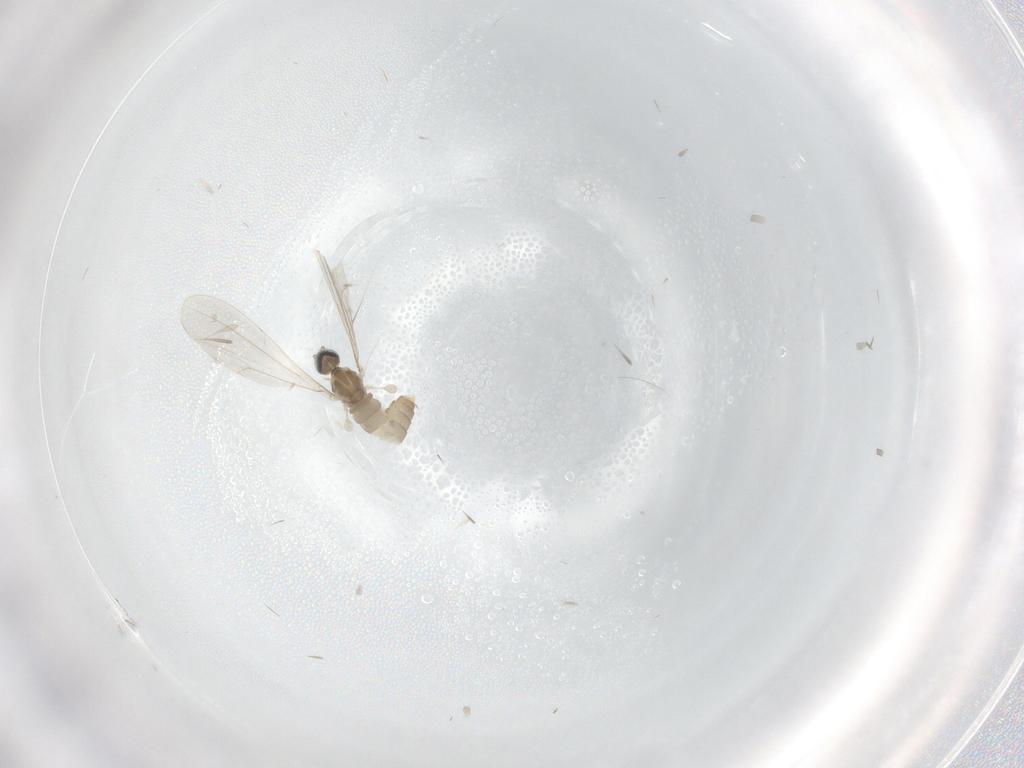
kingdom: Animalia
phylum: Arthropoda
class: Insecta
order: Diptera
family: Cecidomyiidae
